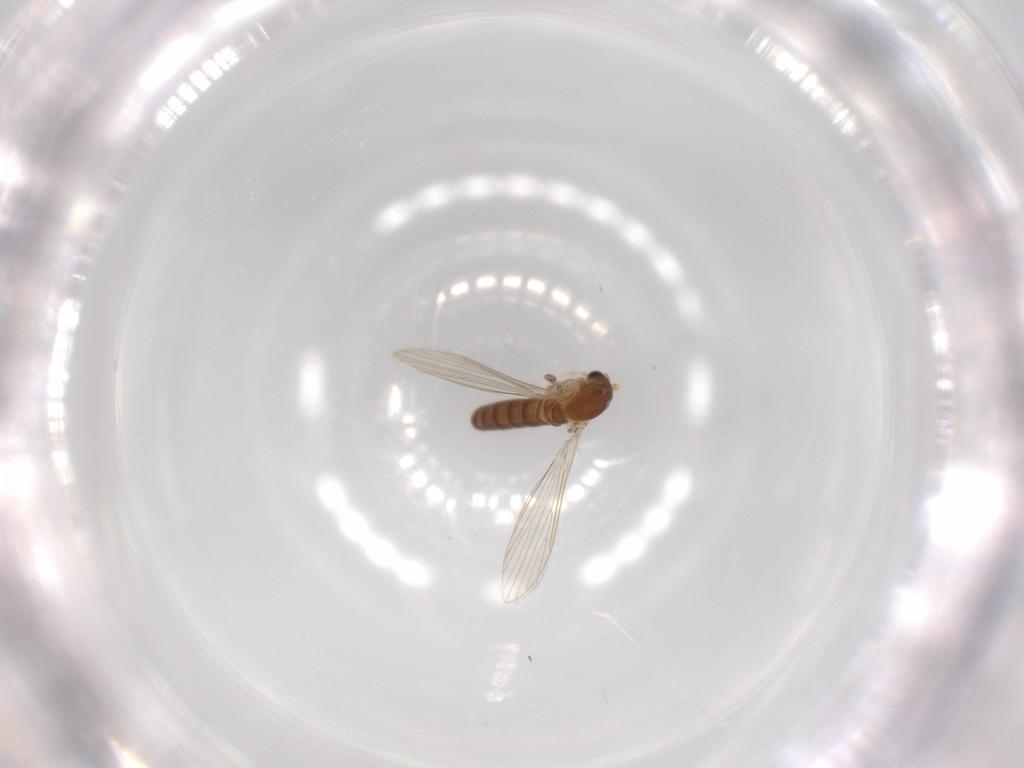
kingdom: Animalia
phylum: Arthropoda
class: Insecta
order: Diptera
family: Psychodidae
